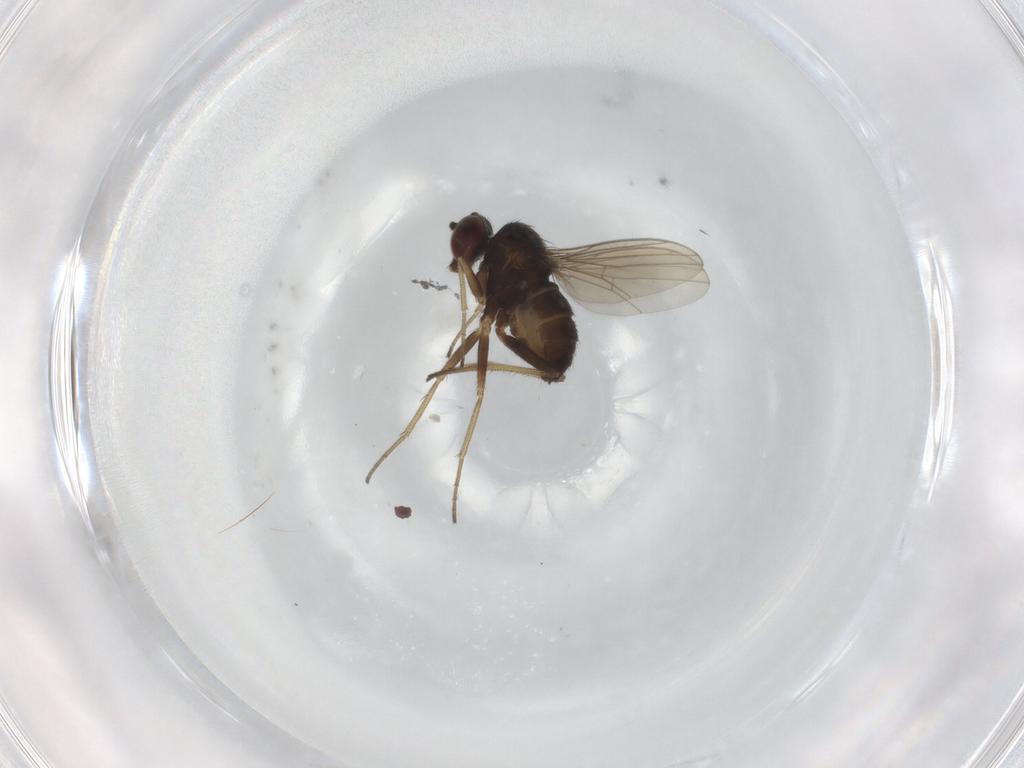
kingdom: Animalia
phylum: Arthropoda
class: Insecta
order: Diptera
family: Dolichopodidae
